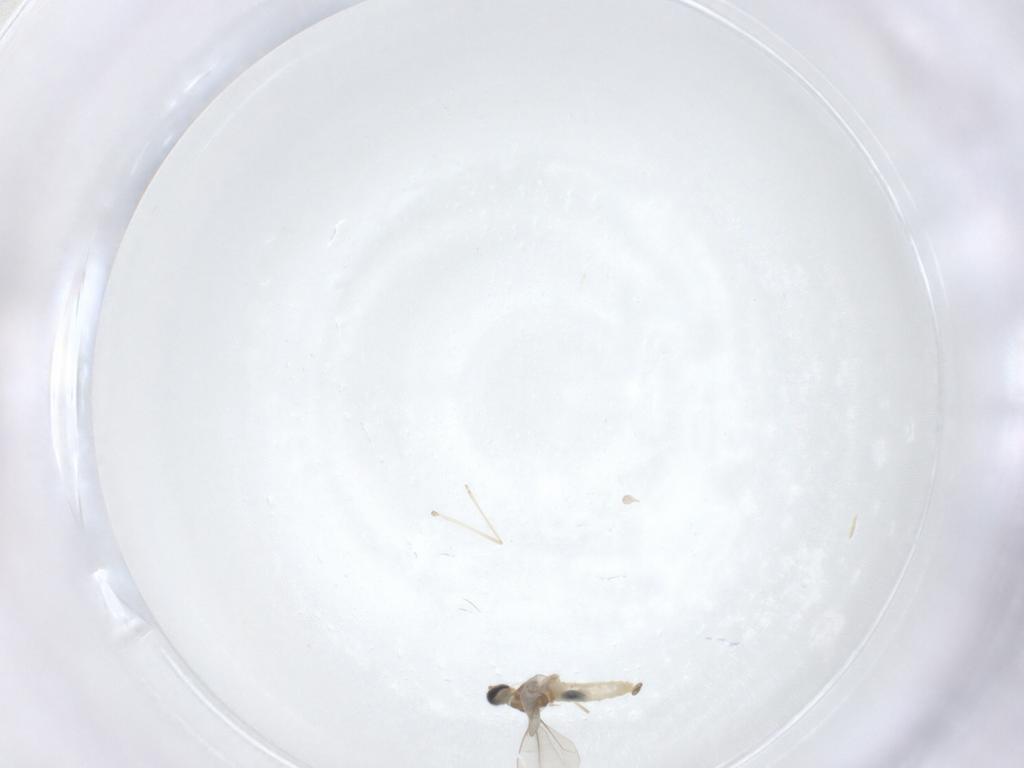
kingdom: Animalia
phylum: Arthropoda
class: Insecta
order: Diptera
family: Cecidomyiidae
